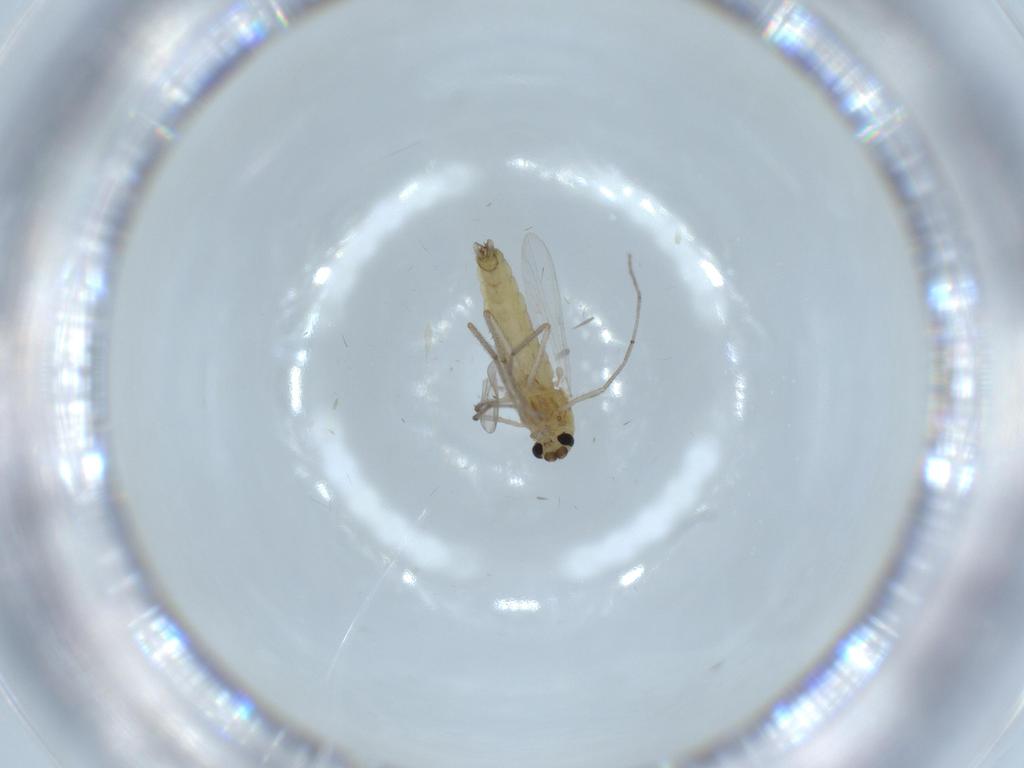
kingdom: Animalia
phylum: Arthropoda
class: Insecta
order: Diptera
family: Chironomidae
